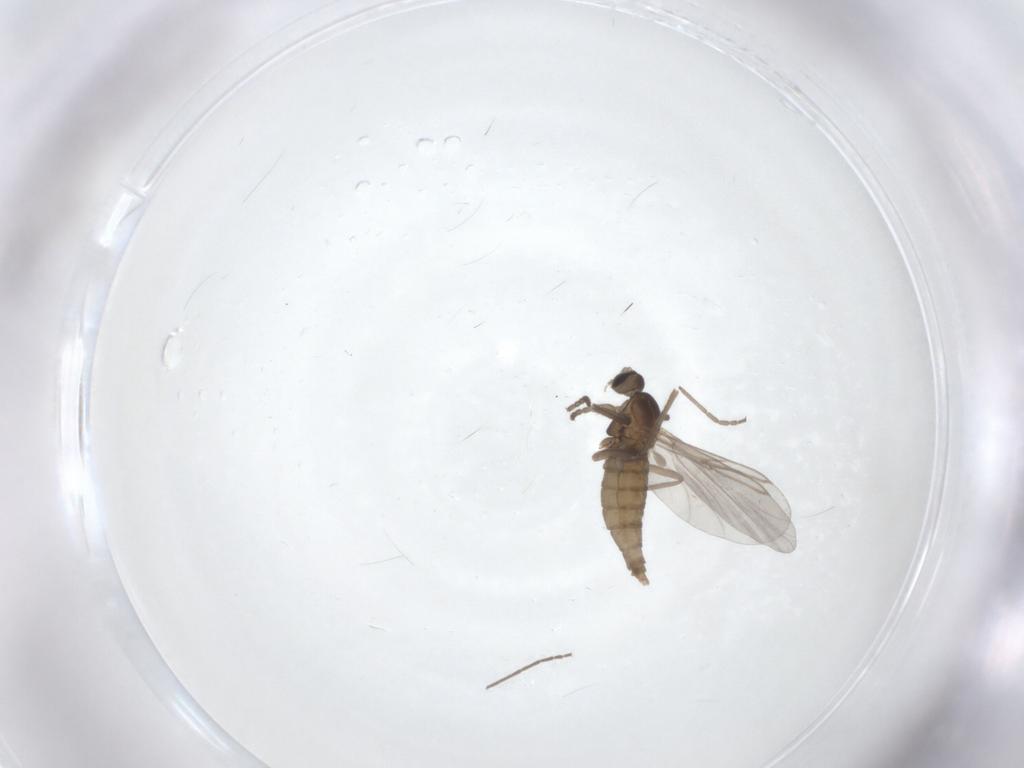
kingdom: Animalia
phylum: Arthropoda
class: Insecta
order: Diptera
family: Cecidomyiidae
